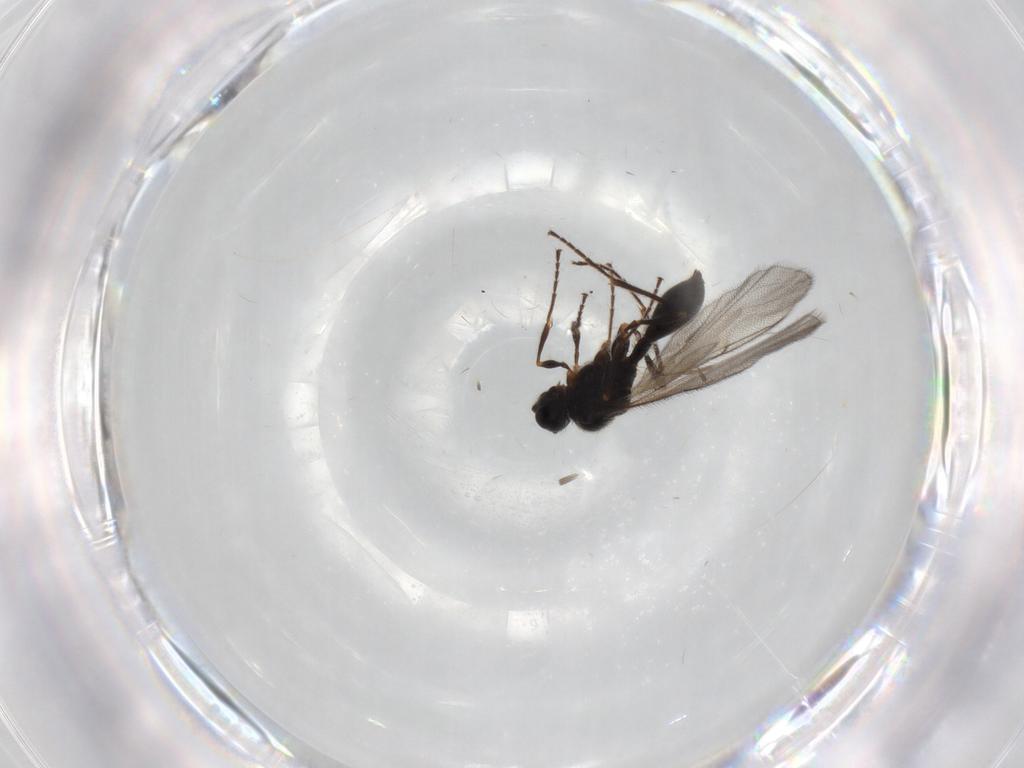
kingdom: Animalia
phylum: Arthropoda
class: Insecta
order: Hymenoptera
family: Diapriidae
